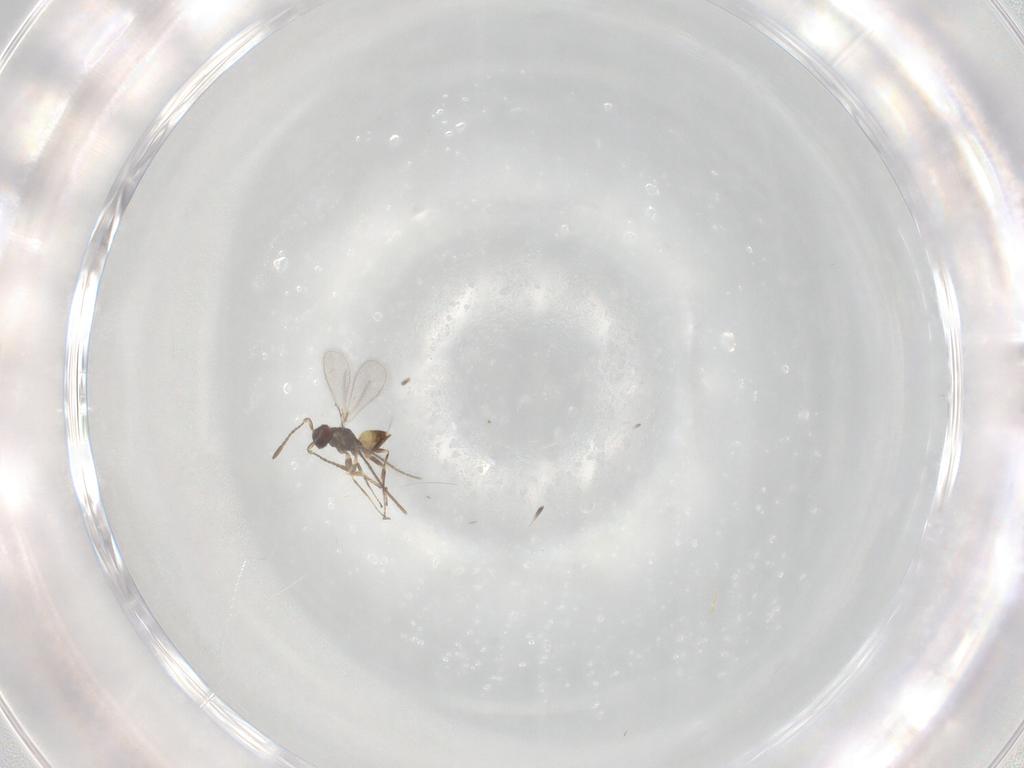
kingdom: Animalia
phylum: Arthropoda
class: Insecta
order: Hymenoptera
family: Mymaridae
